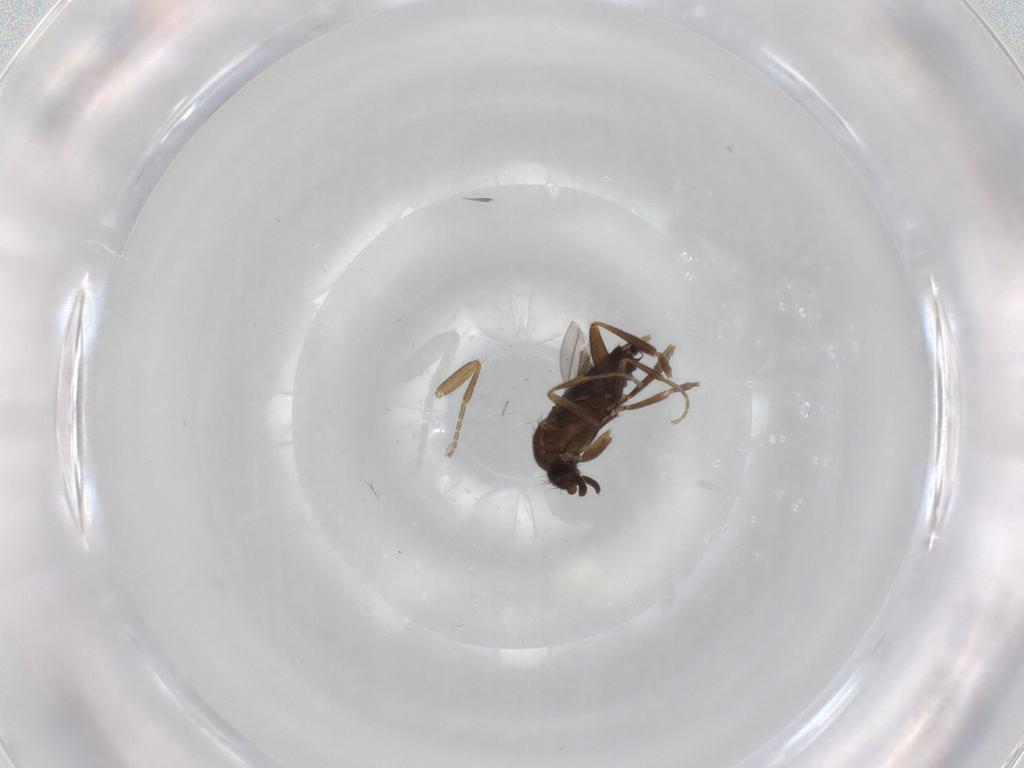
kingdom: Animalia
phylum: Arthropoda
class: Insecta
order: Diptera
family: Chironomidae
